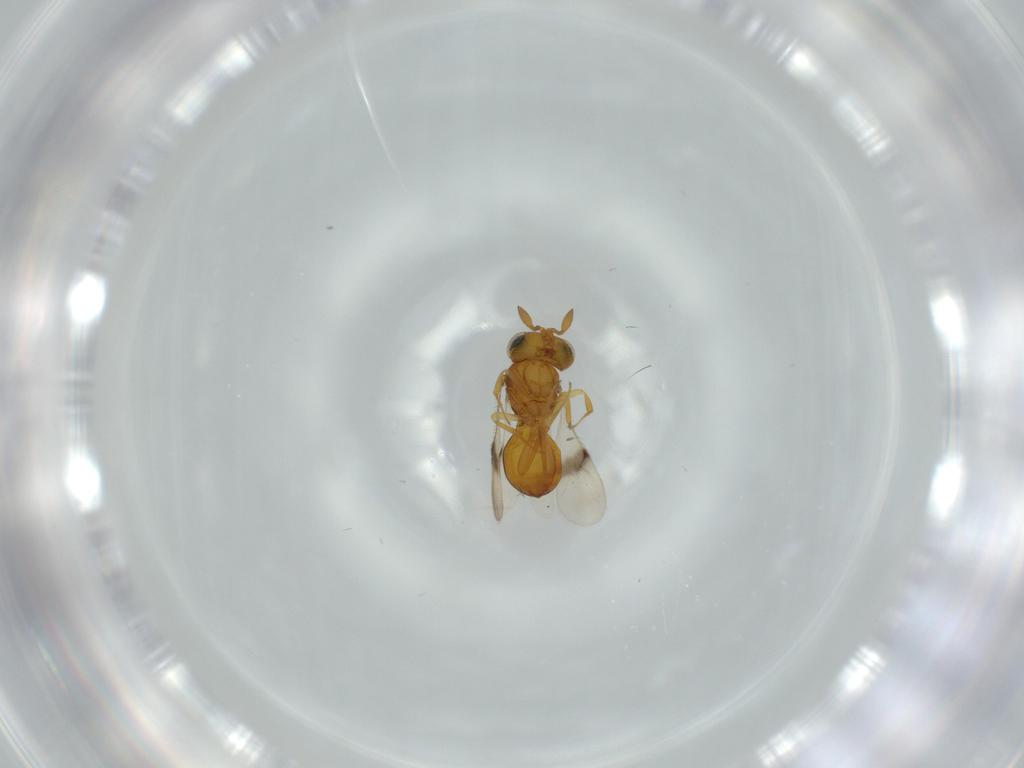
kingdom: Animalia
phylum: Arthropoda
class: Insecta
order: Hymenoptera
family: Scelionidae
